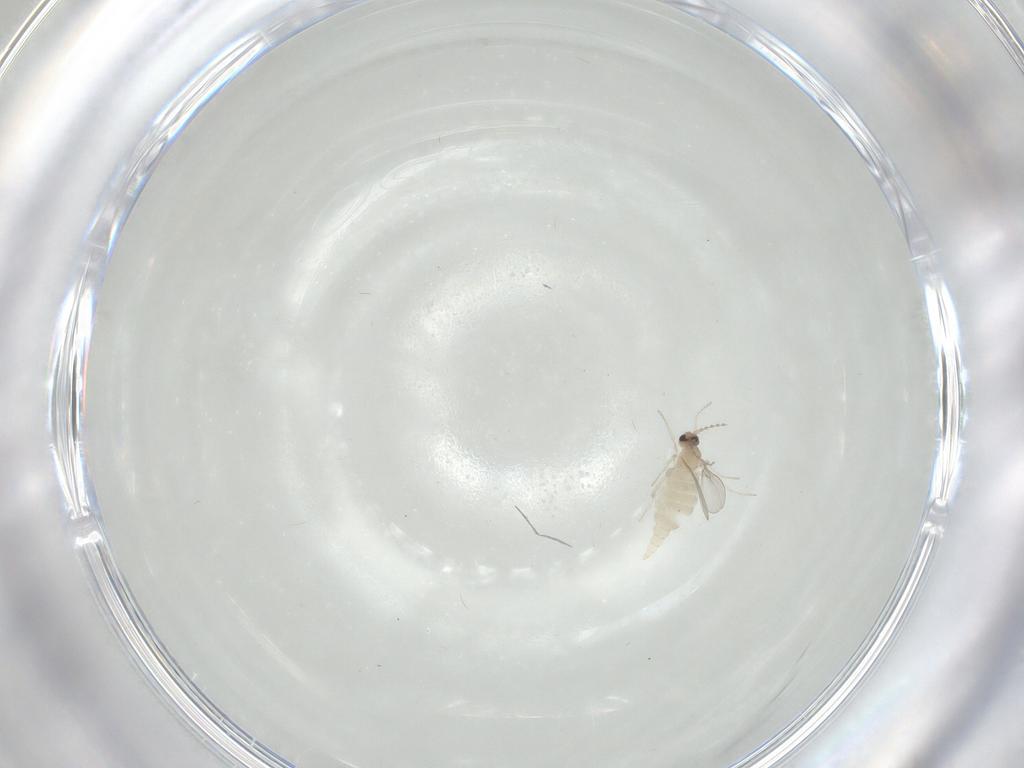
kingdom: Animalia
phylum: Arthropoda
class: Insecta
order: Diptera
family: Cecidomyiidae
